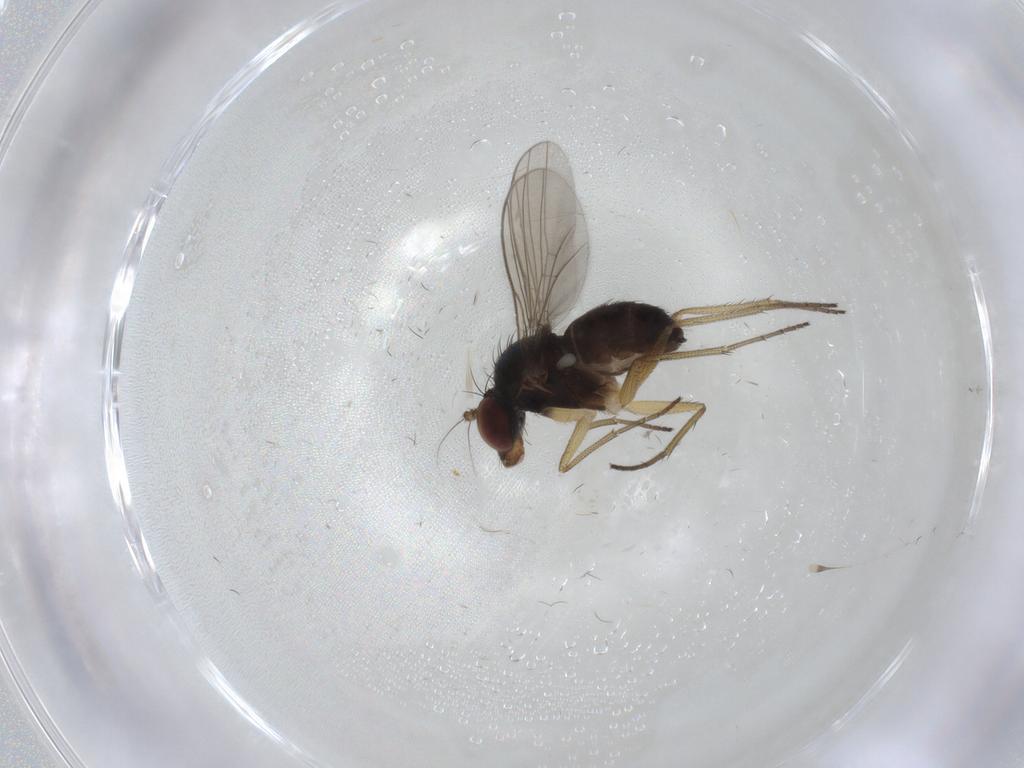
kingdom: Animalia
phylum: Arthropoda
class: Insecta
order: Diptera
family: Dolichopodidae
